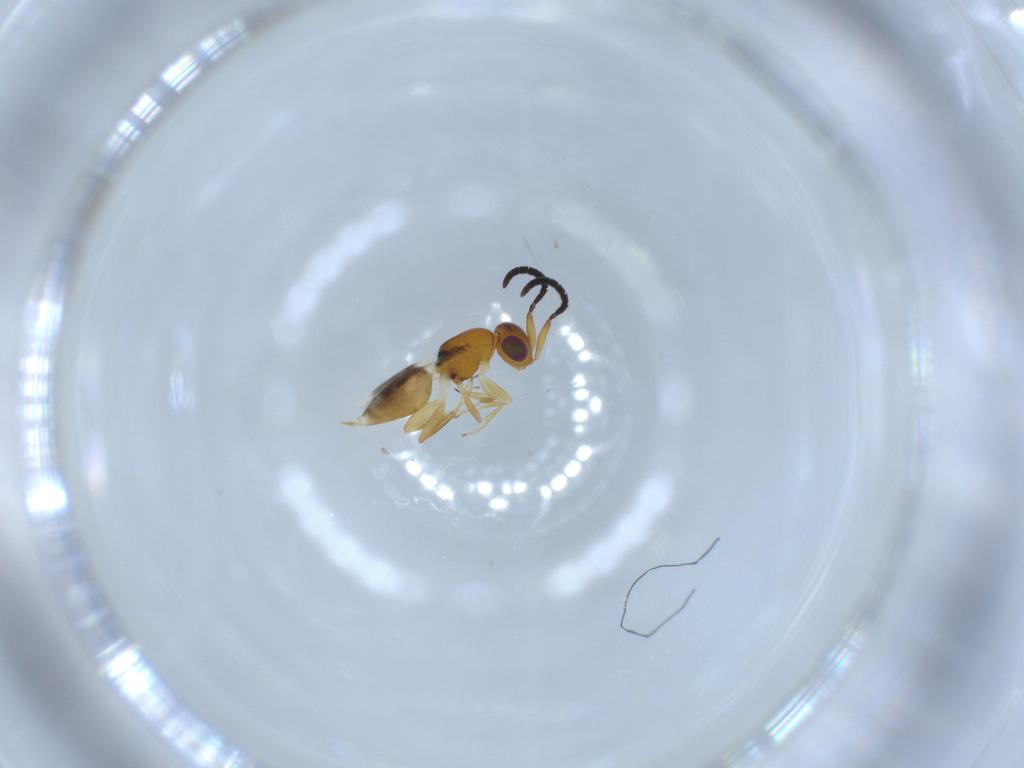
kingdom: Animalia
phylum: Arthropoda
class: Insecta
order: Hymenoptera
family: Megaspilidae
